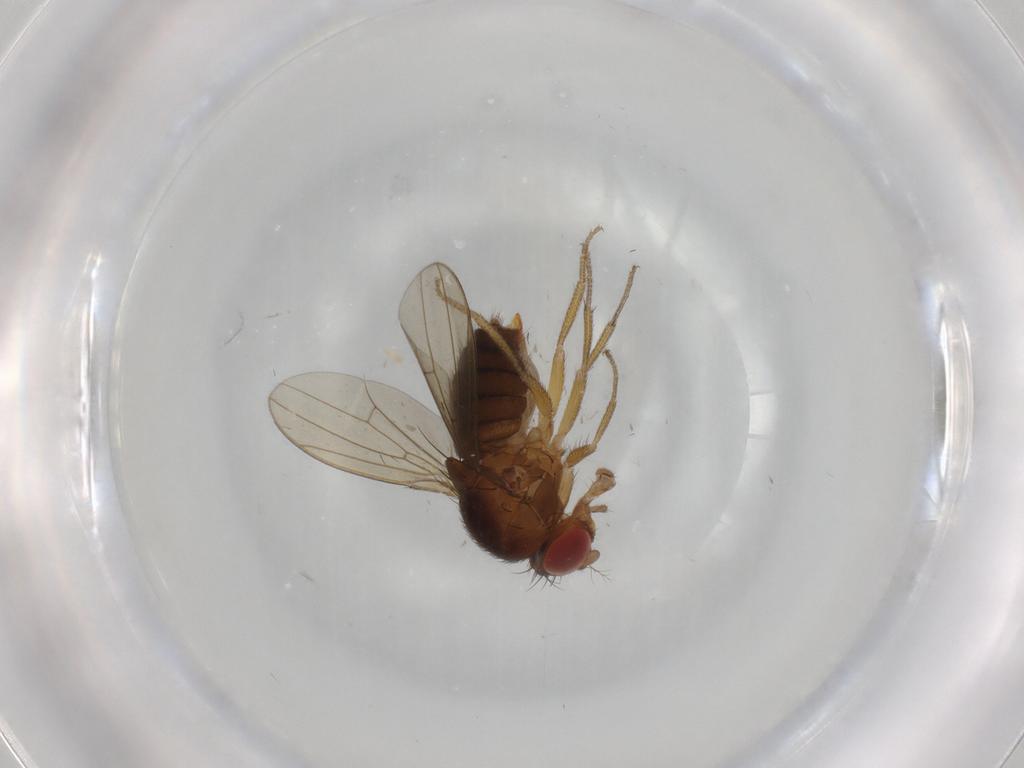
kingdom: Animalia
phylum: Arthropoda
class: Insecta
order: Diptera
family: Drosophilidae
